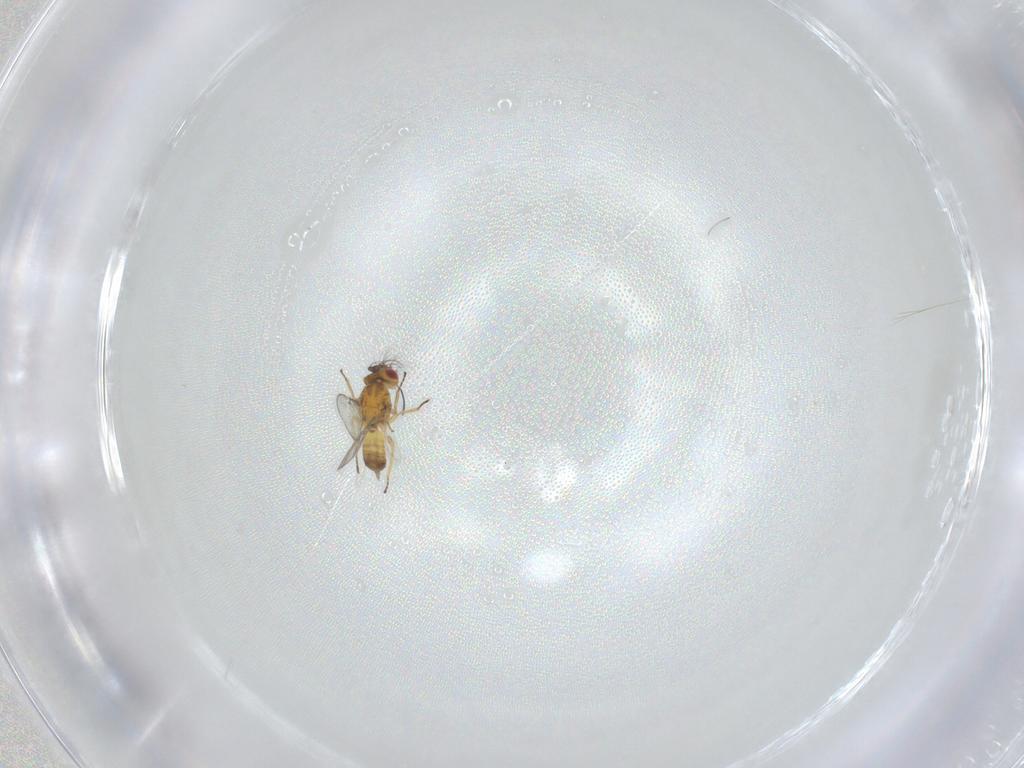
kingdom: Animalia
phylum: Arthropoda
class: Insecta
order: Hymenoptera
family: Eulophidae
